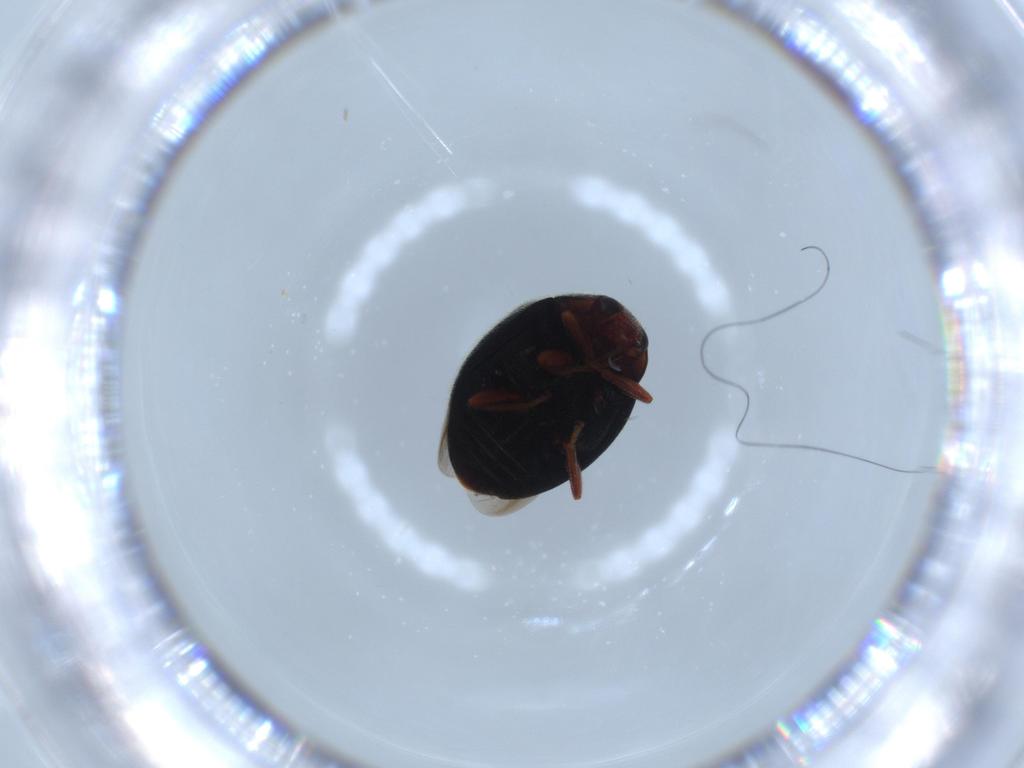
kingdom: Animalia
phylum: Arthropoda
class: Insecta
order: Coleoptera
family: Coccinellidae
